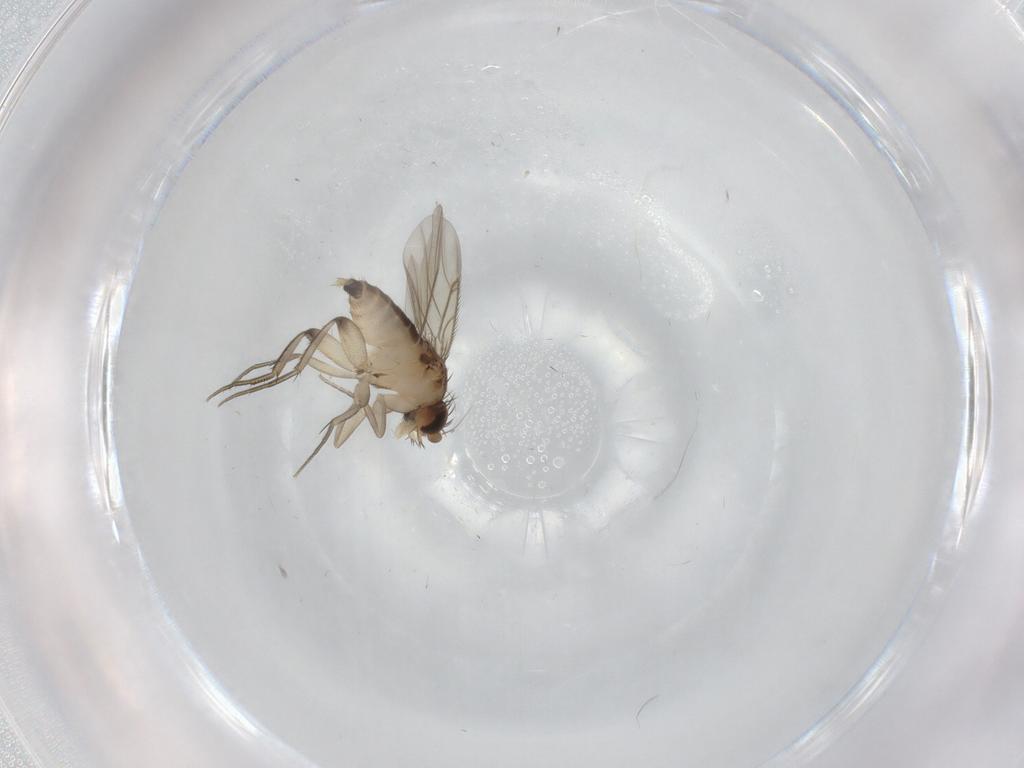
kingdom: Animalia
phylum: Arthropoda
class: Insecta
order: Diptera
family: Phoridae
